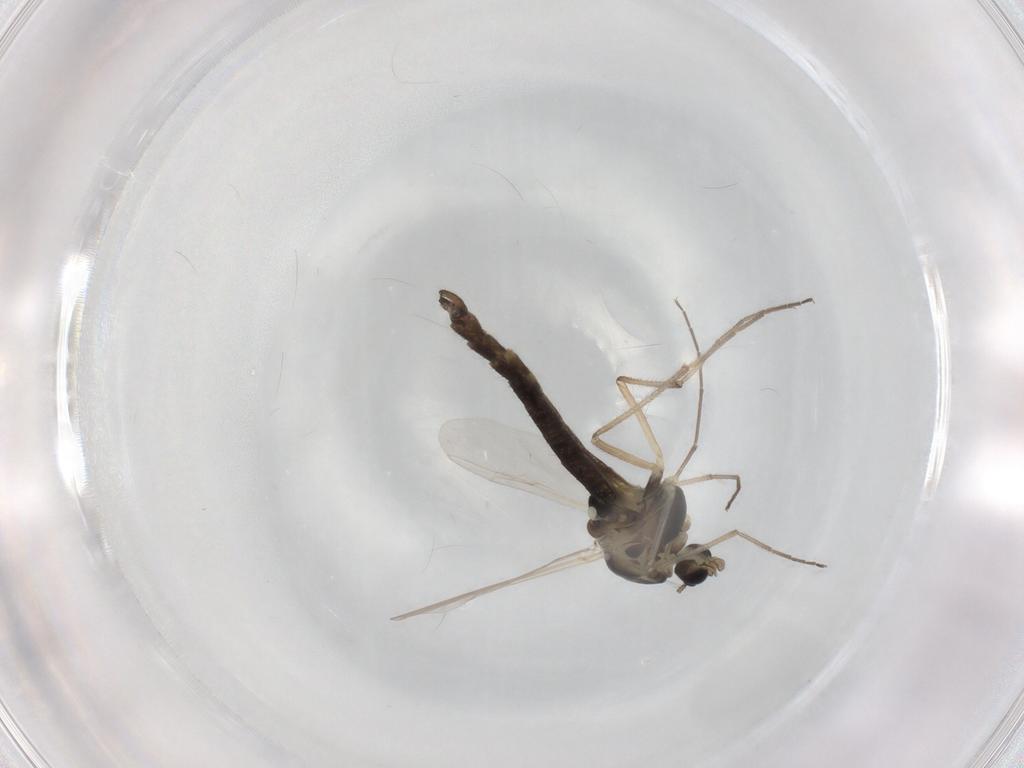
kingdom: Animalia
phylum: Arthropoda
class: Insecta
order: Diptera
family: Chironomidae
